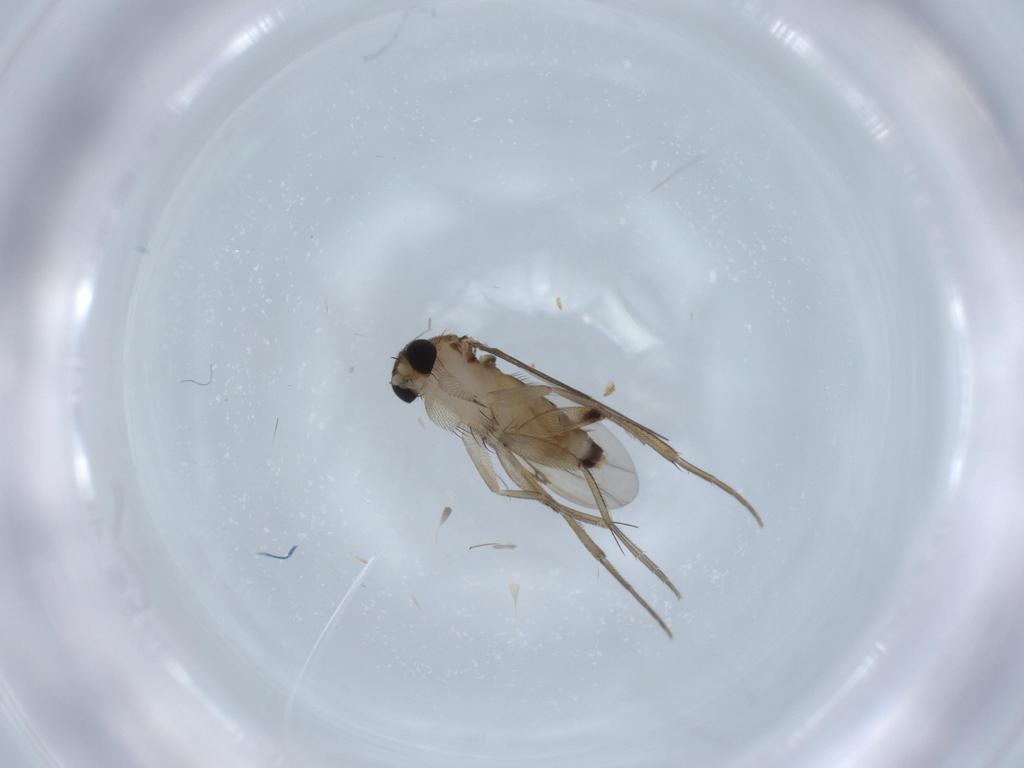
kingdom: Animalia
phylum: Arthropoda
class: Insecta
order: Diptera
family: Phoridae
